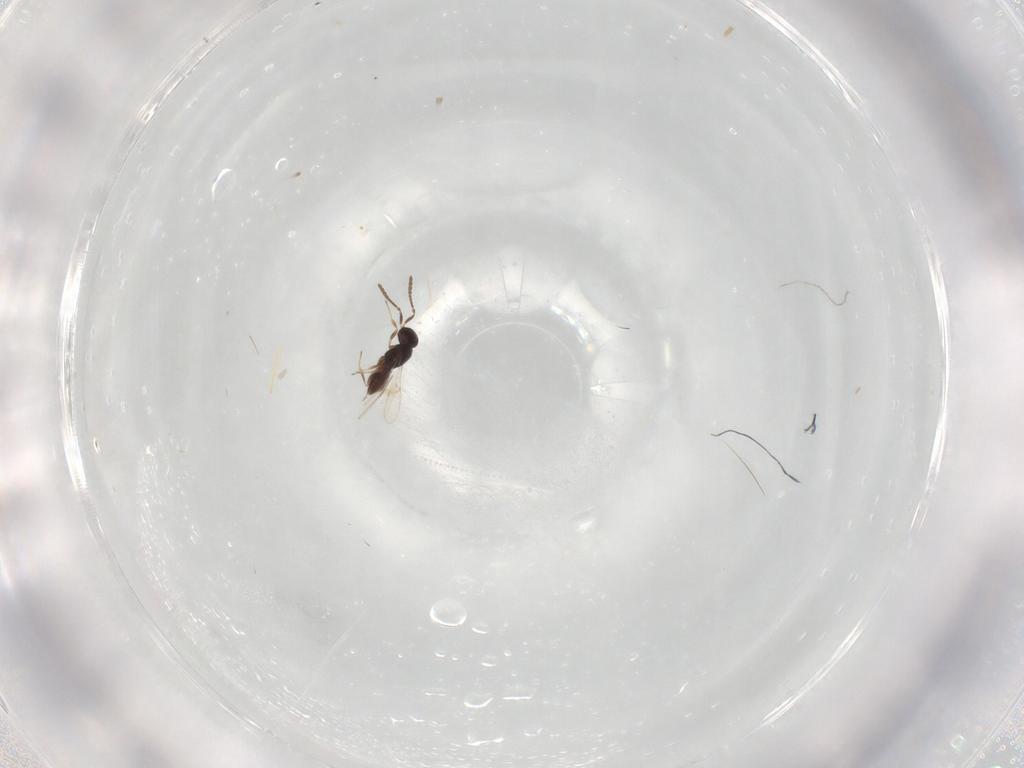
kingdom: Animalia
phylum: Arthropoda
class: Insecta
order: Hymenoptera
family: Scelionidae
